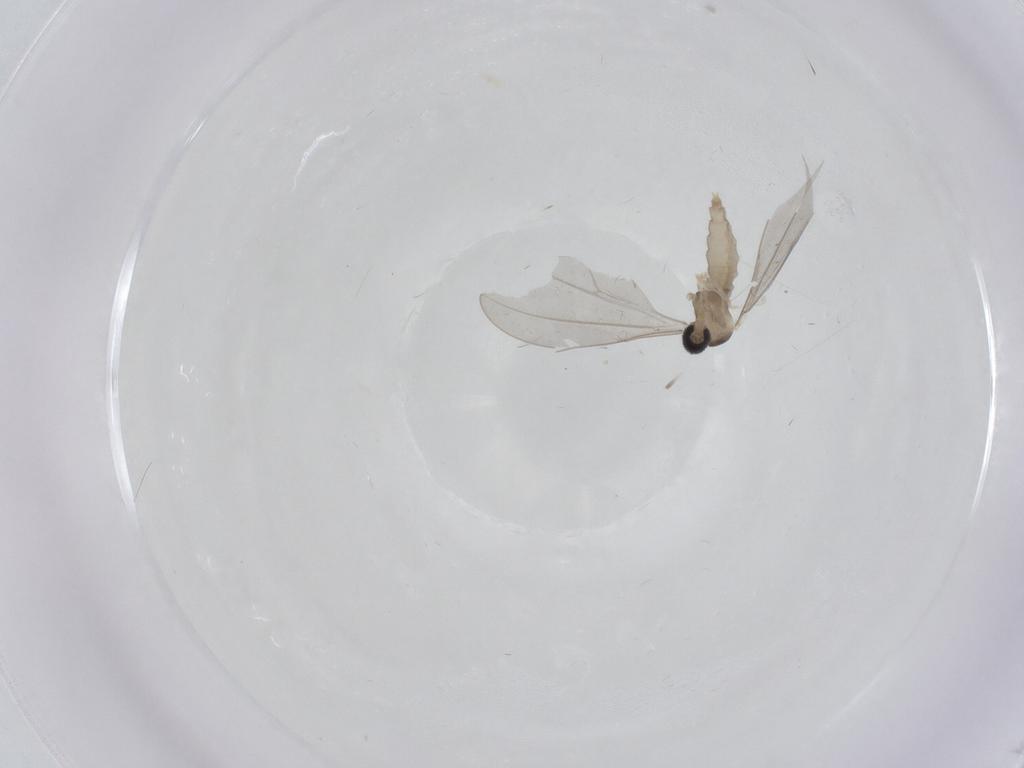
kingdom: Animalia
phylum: Arthropoda
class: Insecta
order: Diptera
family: Cecidomyiidae
